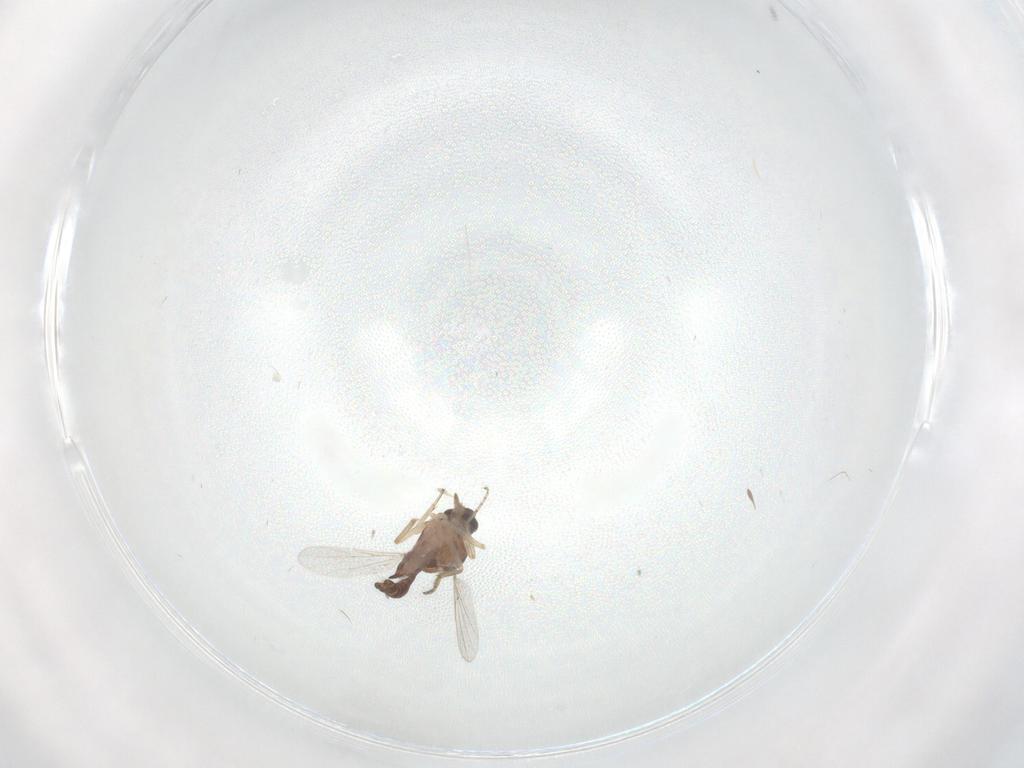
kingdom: Animalia
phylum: Arthropoda
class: Insecta
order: Diptera
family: Ceratopogonidae
